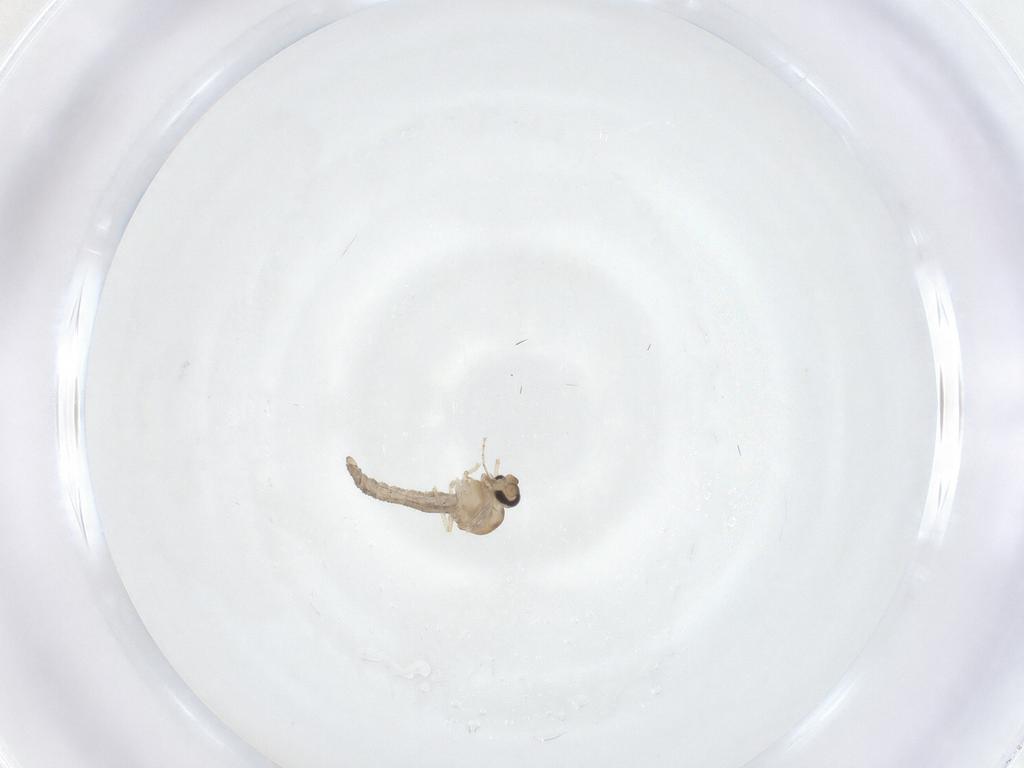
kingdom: Animalia
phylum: Arthropoda
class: Insecta
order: Diptera
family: Ceratopogonidae
